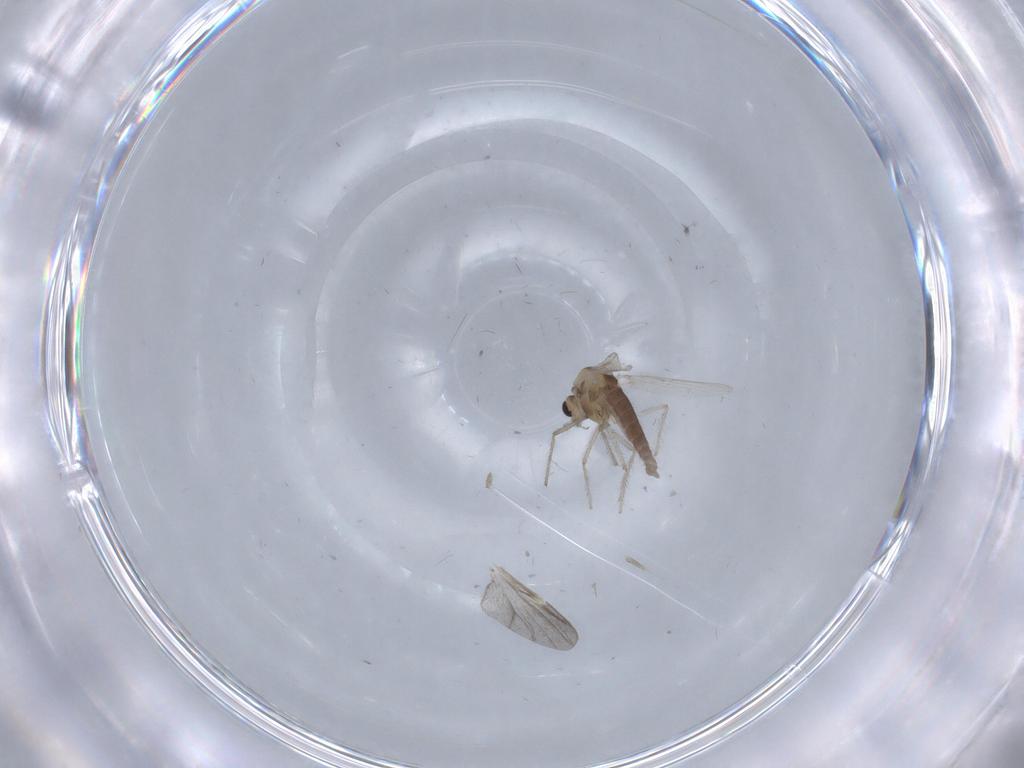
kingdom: Animalia
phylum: Arthropoda
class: Insecta
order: Diptera
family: Chironomidae
